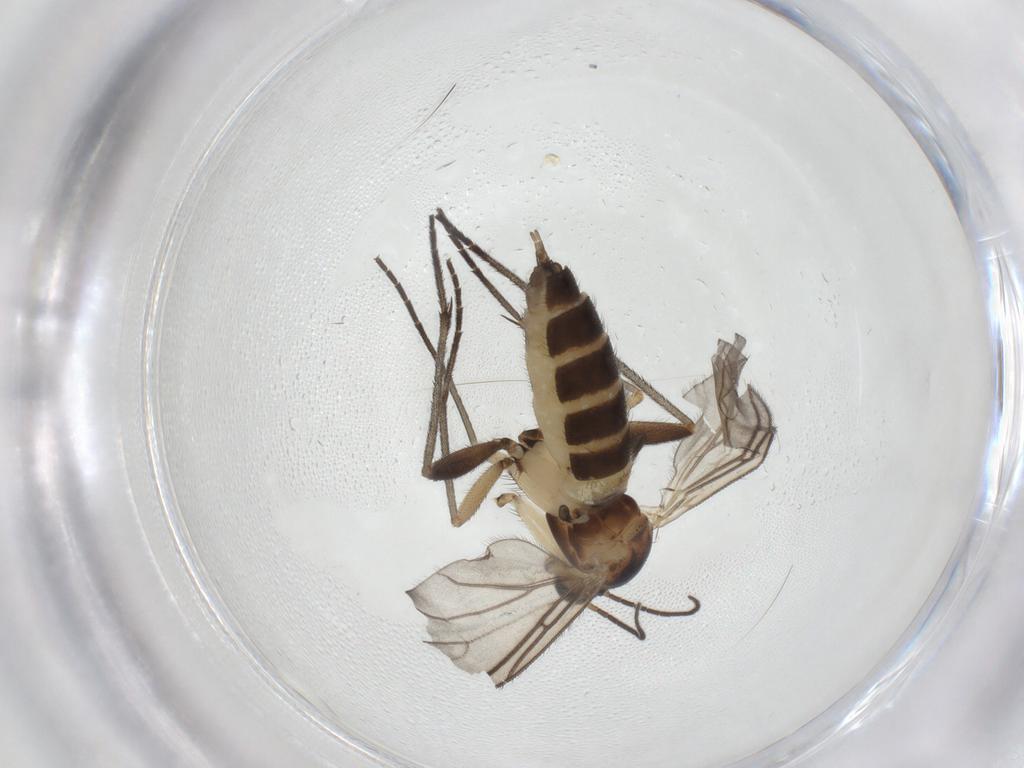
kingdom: Animalia
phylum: Arthropoda
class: Insecta
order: Diptera
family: Sciaridae
